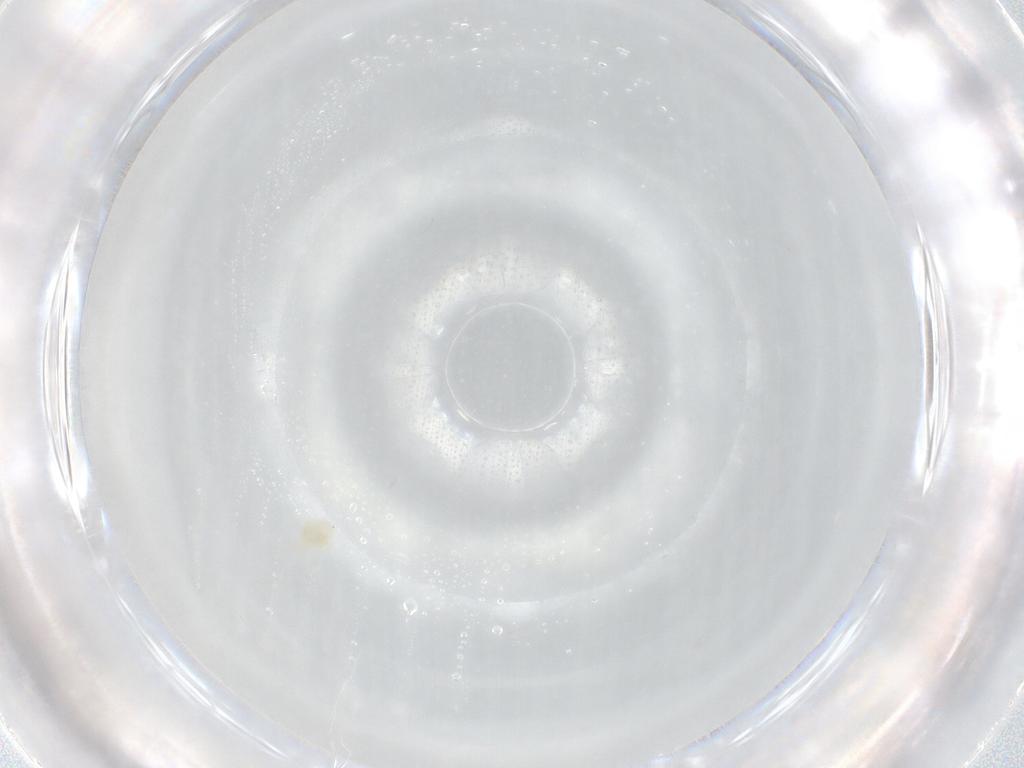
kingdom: Animalia
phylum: Arthropoda
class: Arachnida
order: Trombidiformes
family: Eupodidae
